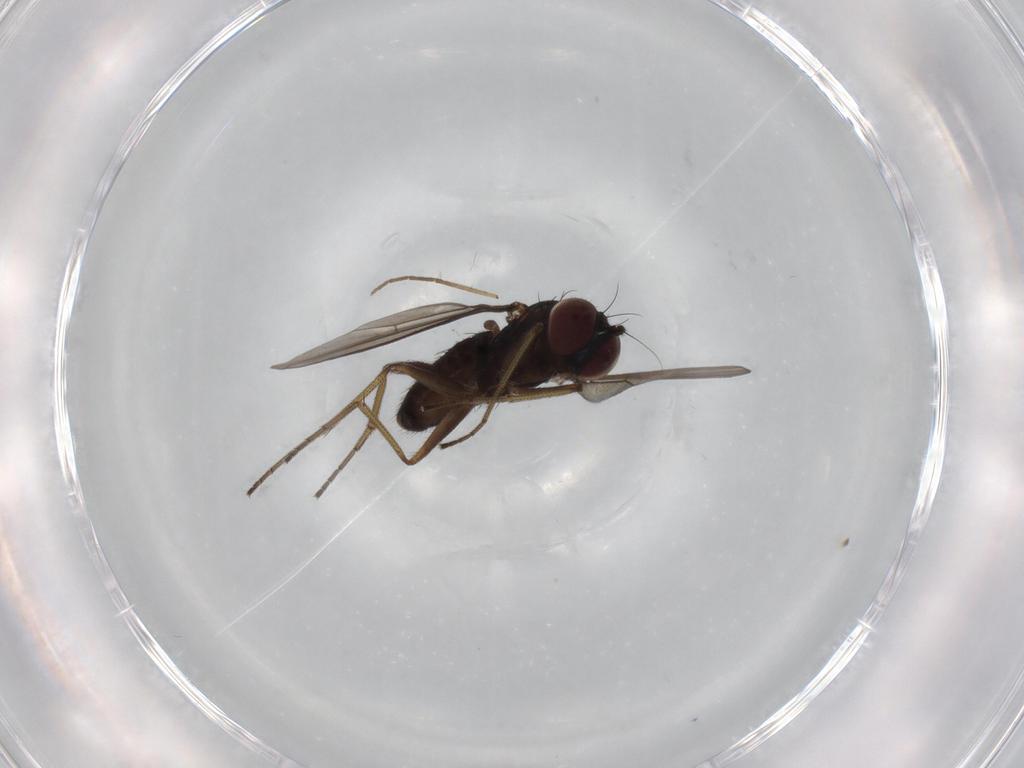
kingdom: Animalia
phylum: Arthropoda
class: Insecta
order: Diptera
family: Dolichopodidae
